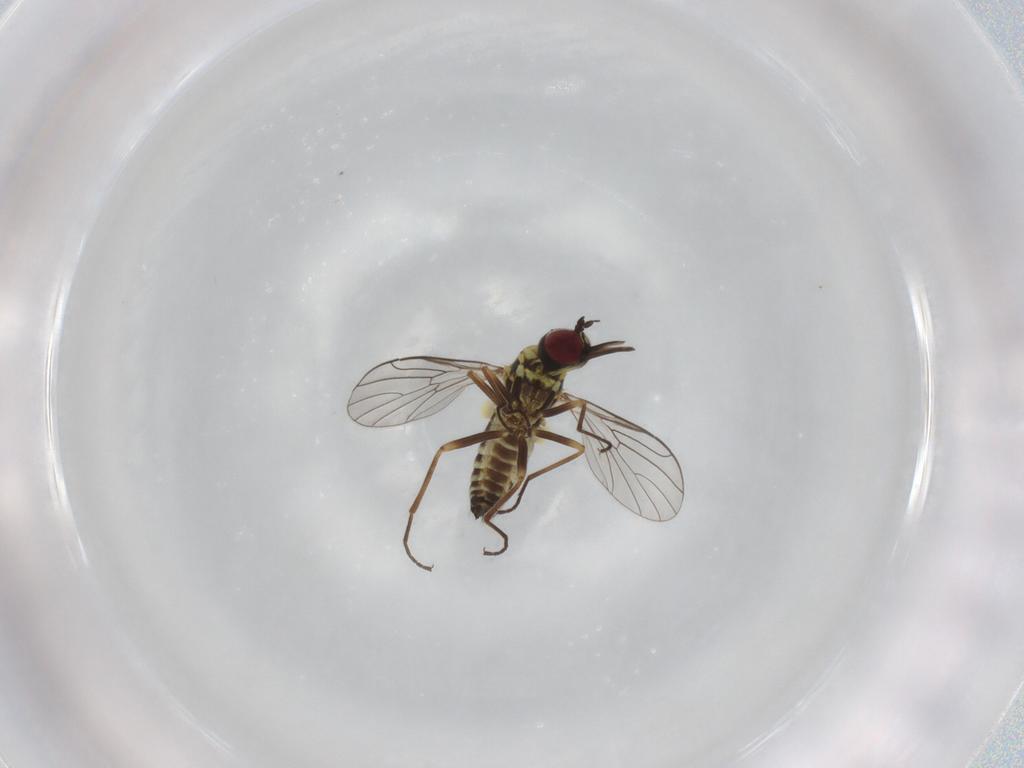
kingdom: Animalia
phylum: Arthropoda
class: Insecta
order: Diptera
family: Bombyliidae
